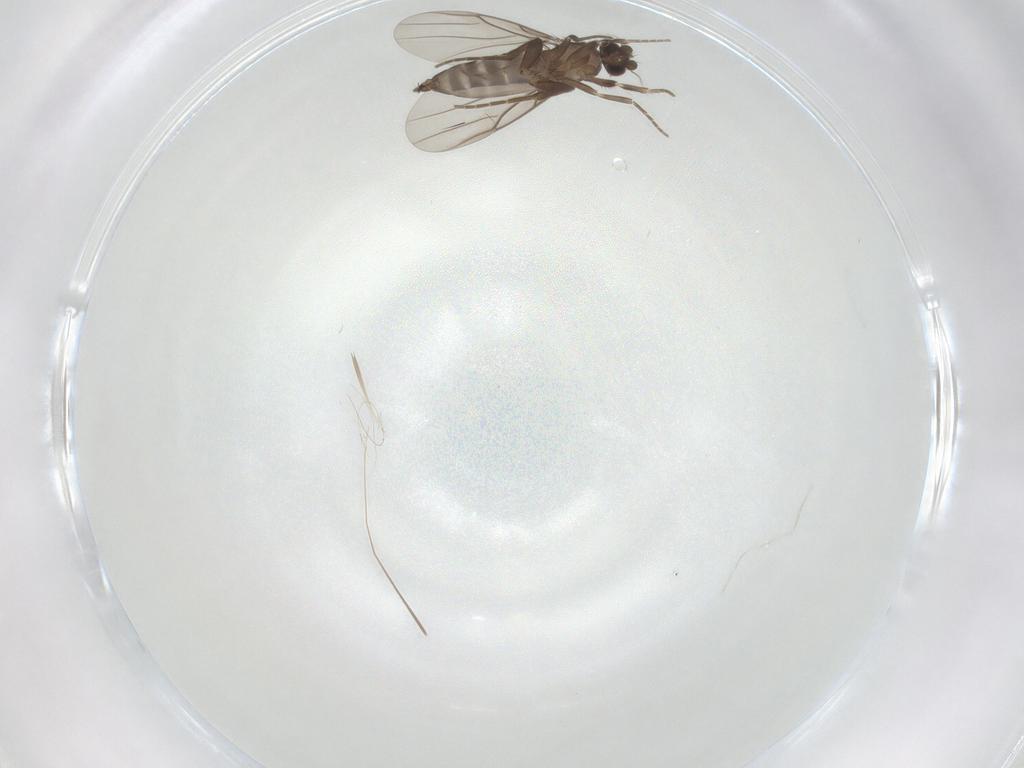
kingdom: Animalia
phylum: Arthropoda
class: Insecta
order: Diptera
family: Phoridae
